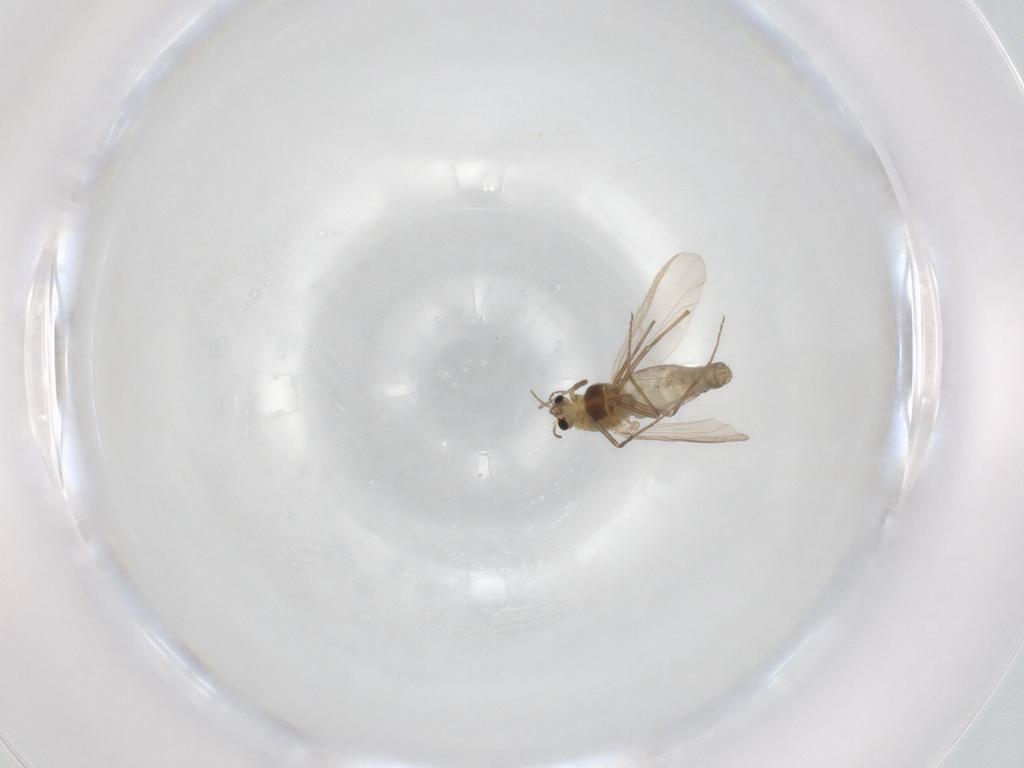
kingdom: Animalia
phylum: Arthropoda
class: Insecta
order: Diptera
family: Chironomidae
